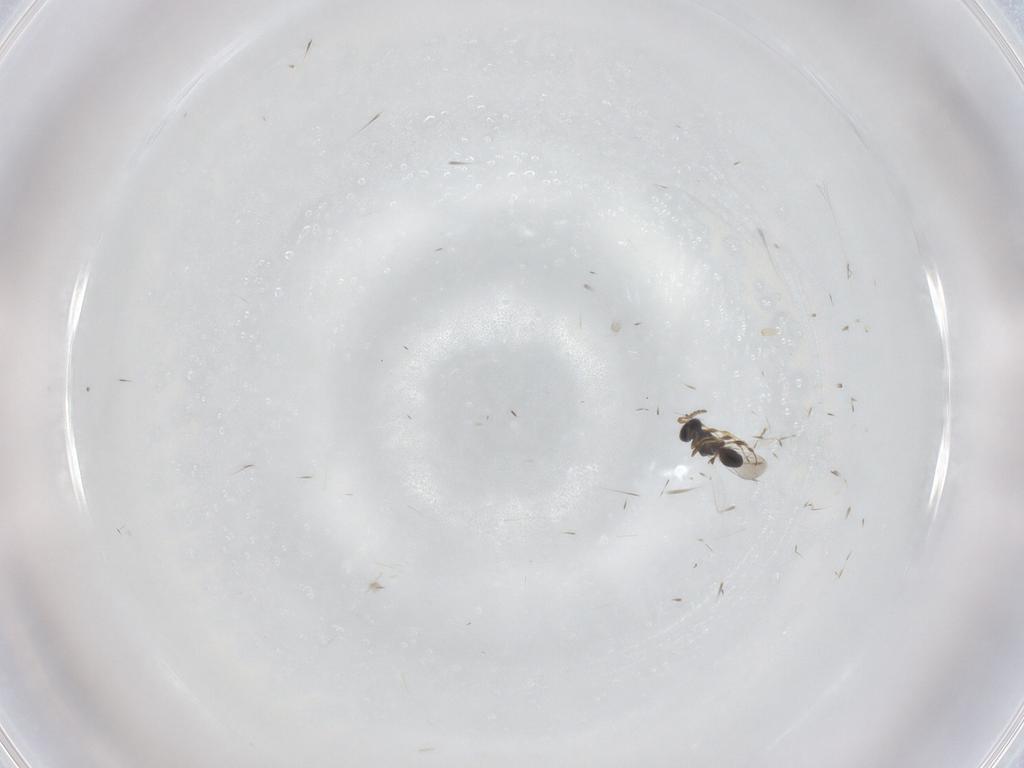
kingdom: Animalia
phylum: Arthropoda
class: Insecta
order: Hymenoptera
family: Platygastridae
